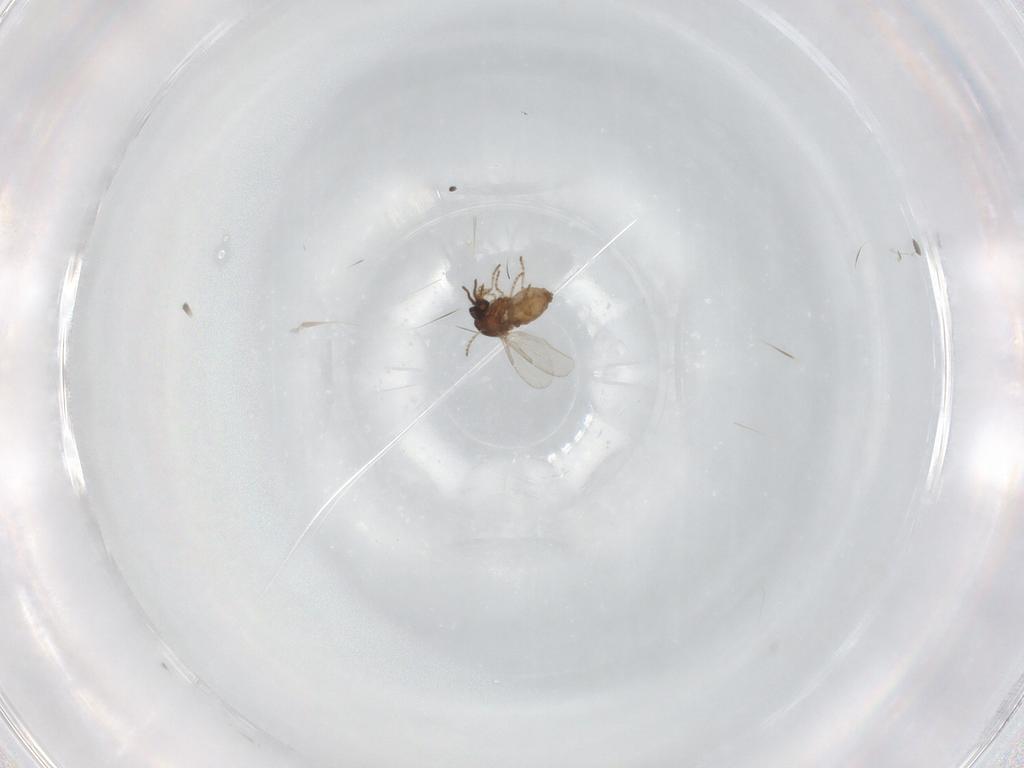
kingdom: Animalia
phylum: Arthropoda
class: Insecta
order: Diptera
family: Ceratopogonidae
